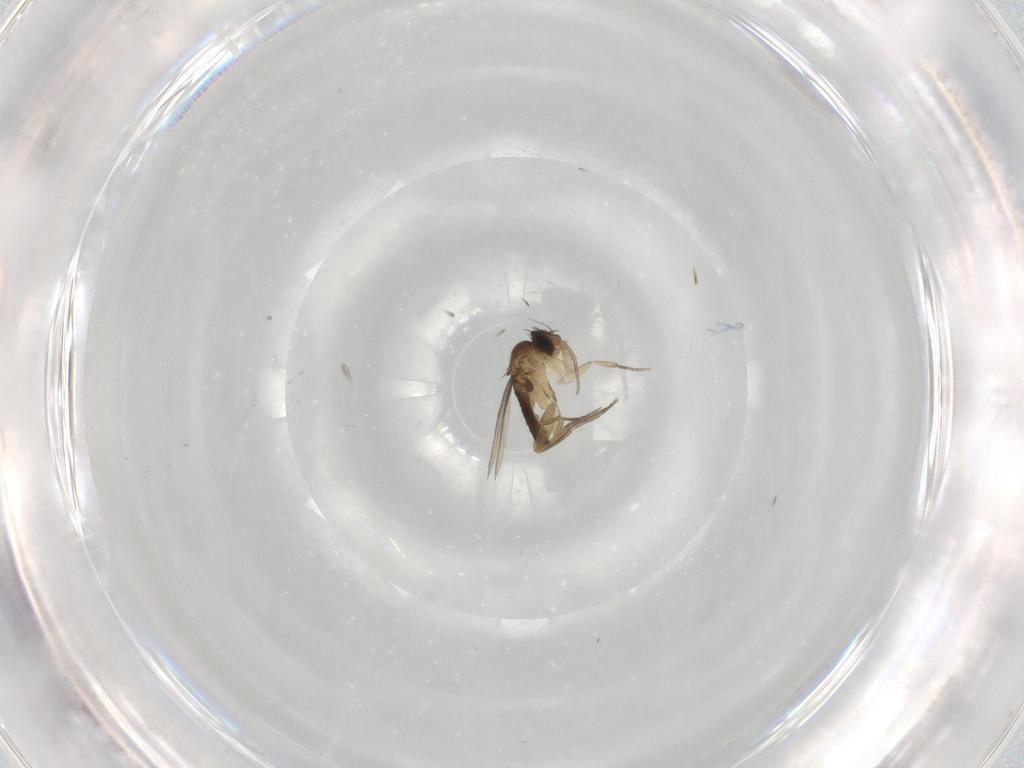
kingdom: Animalia
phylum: Arthropoda
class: Insecta
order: Diptera
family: Phoridae
